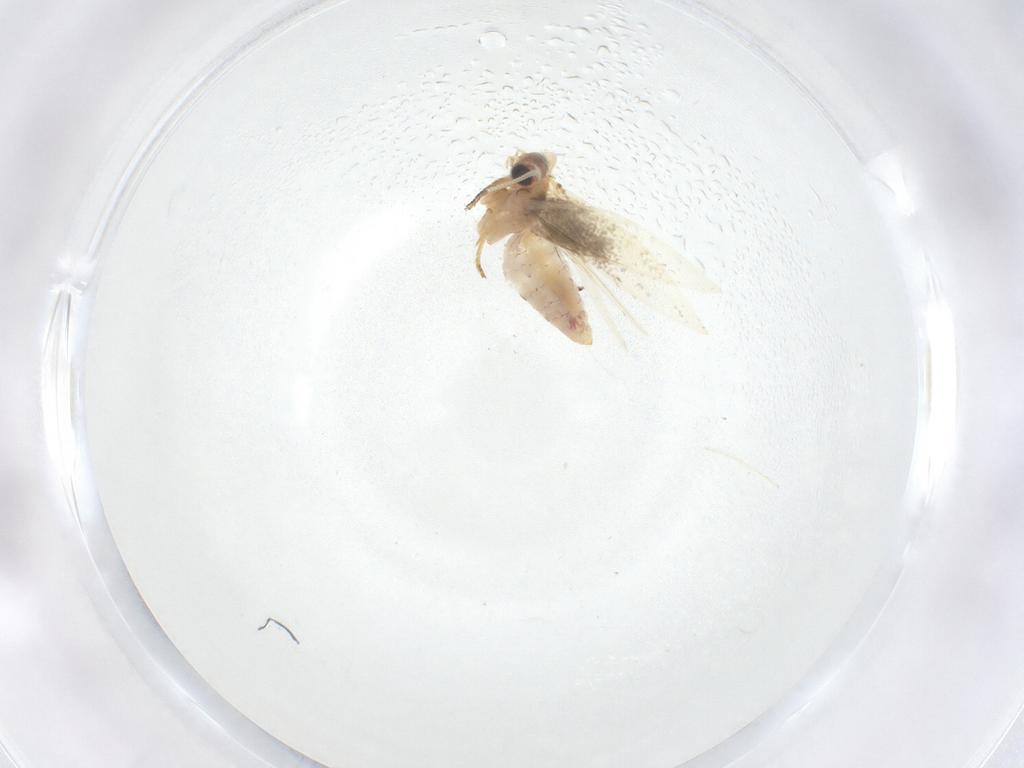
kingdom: Animalia
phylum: Arthropoda
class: Insecta
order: Lepidoptera
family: Nepticulidae
